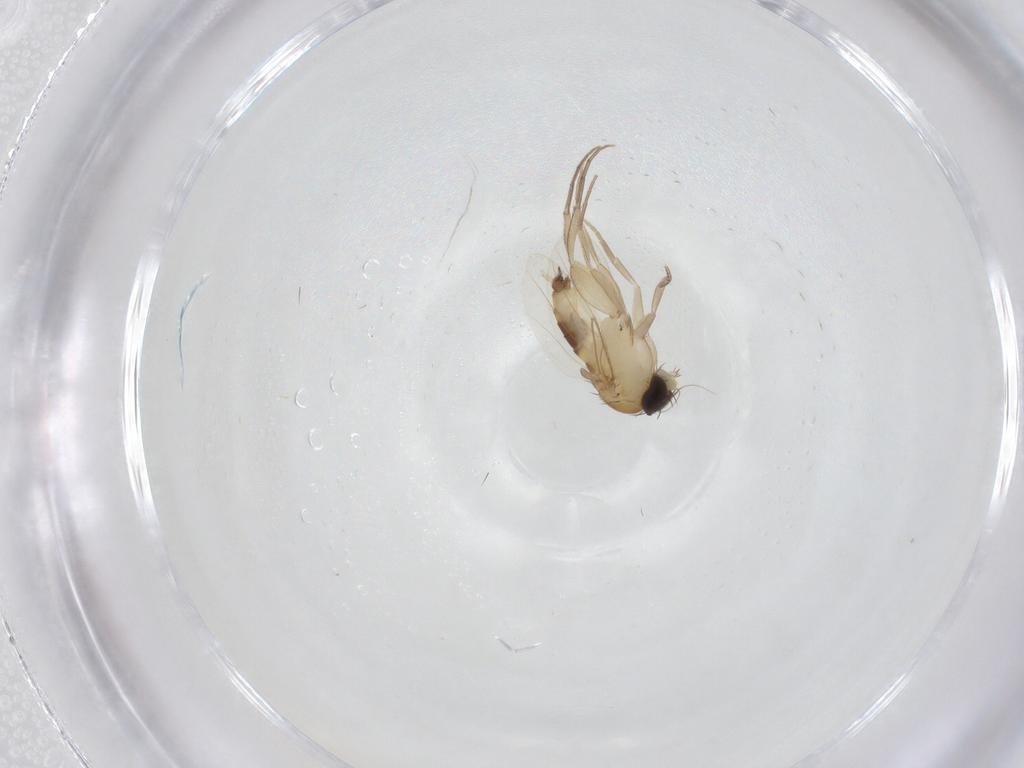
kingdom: Animalia
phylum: Arthropoda
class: Insecta
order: Diptera
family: Phoridae
